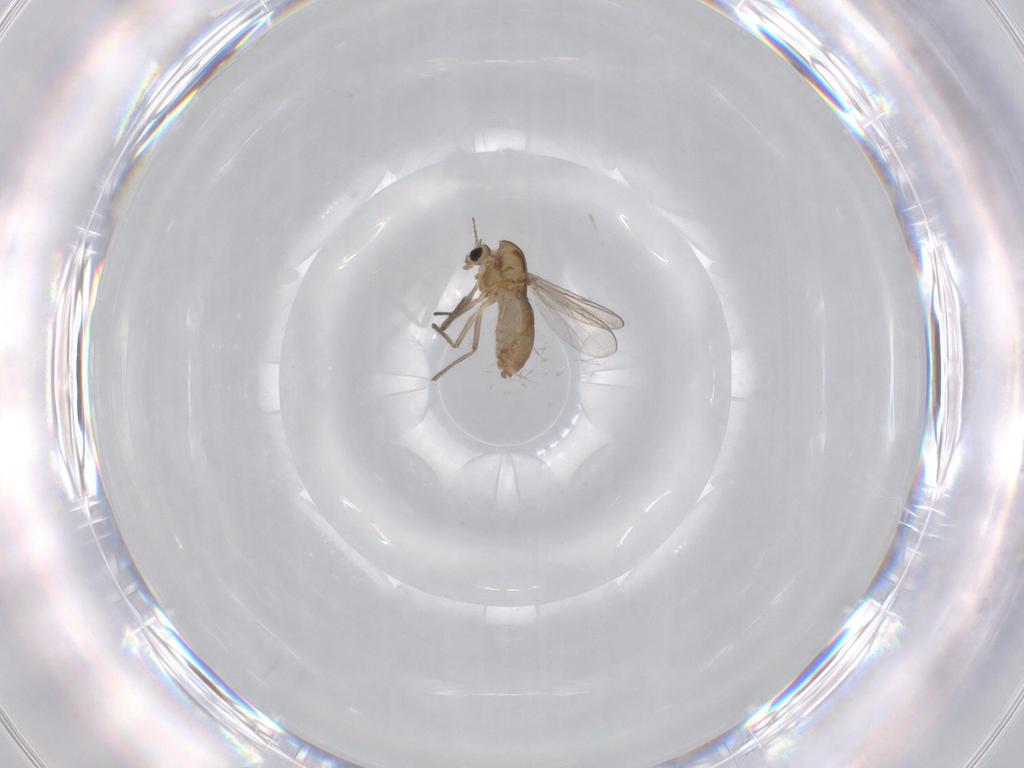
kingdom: Animalia
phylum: Arthropoda
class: Insecta
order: Diptera
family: Chironomidae
